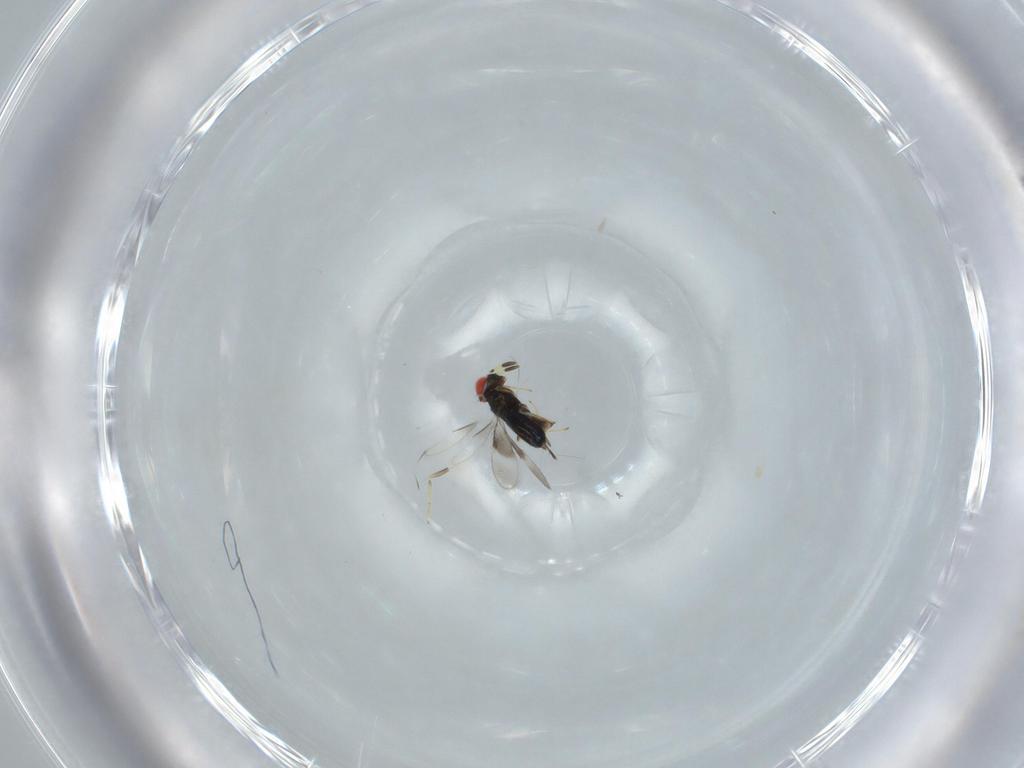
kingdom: Animalia
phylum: Arthropoda
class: Insecta
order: Hymenoptera
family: Azotidae
